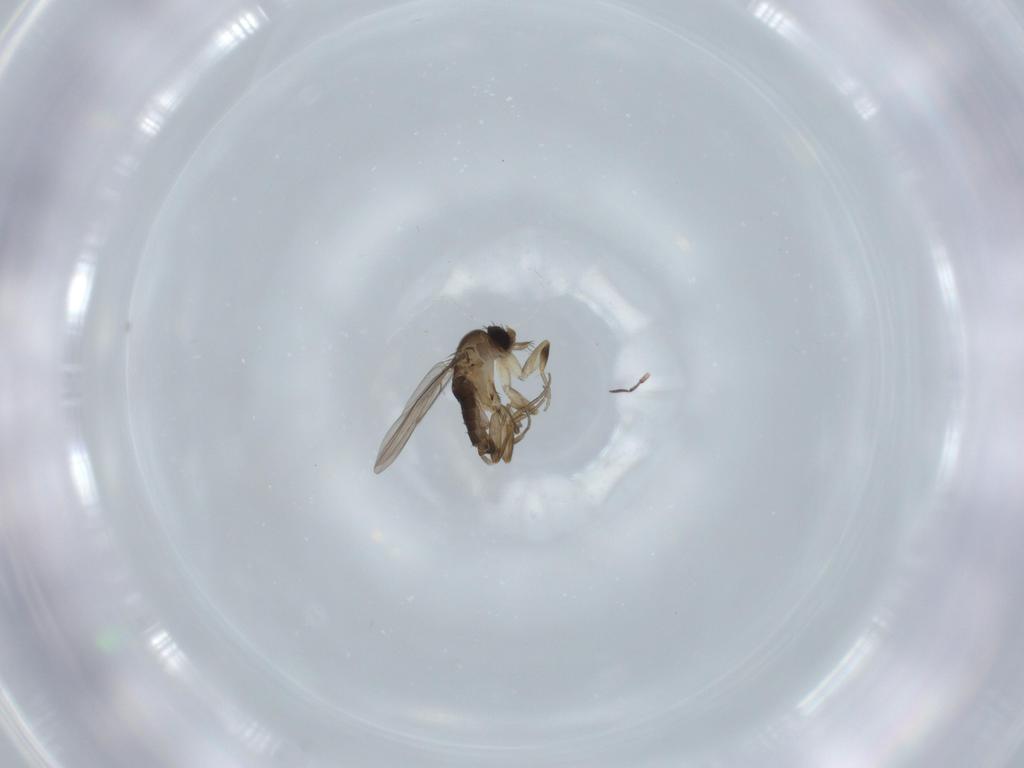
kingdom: Animalia
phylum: Arthropoda
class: Insecta
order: Diptera
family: Phoridae
